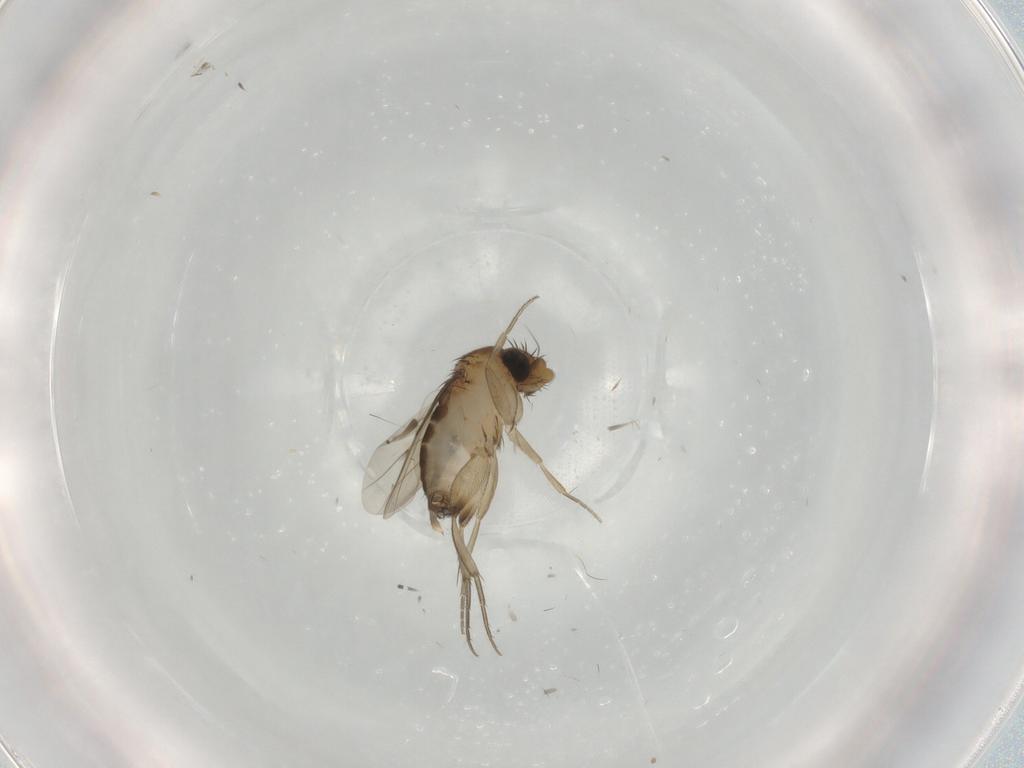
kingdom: Animalia
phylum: Arthropoda
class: Insecta
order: Diptera
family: Phoridae
